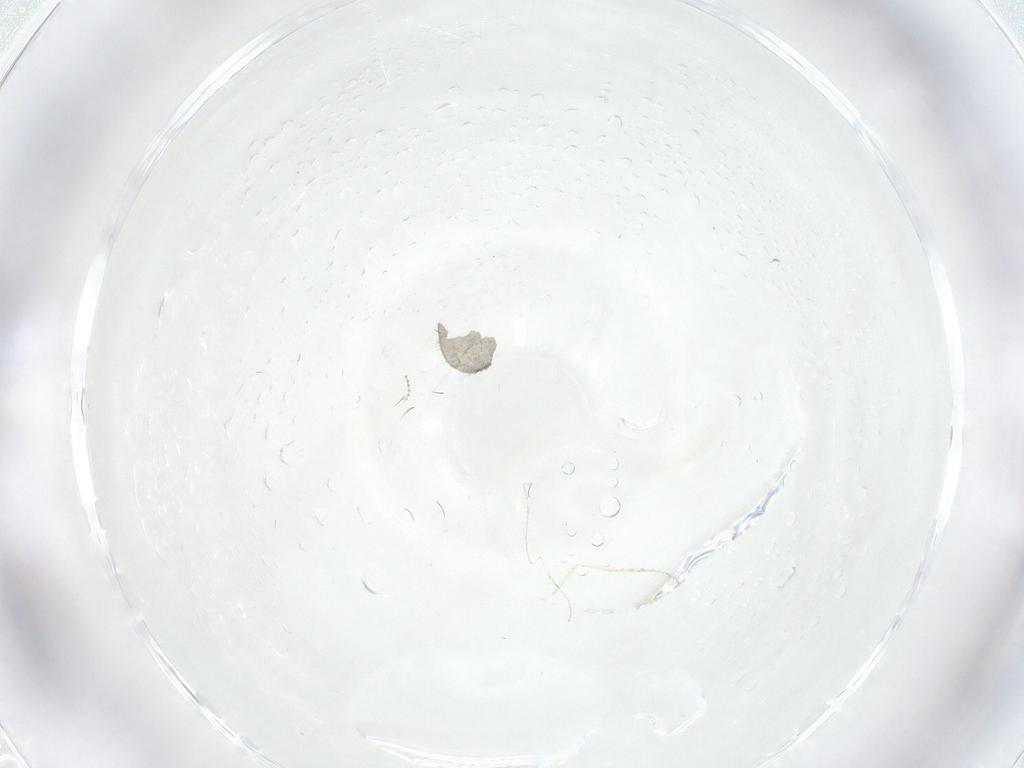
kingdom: Animalia
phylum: Arthropoda
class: Insecta
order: Diptera
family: Cecidomyiidae
